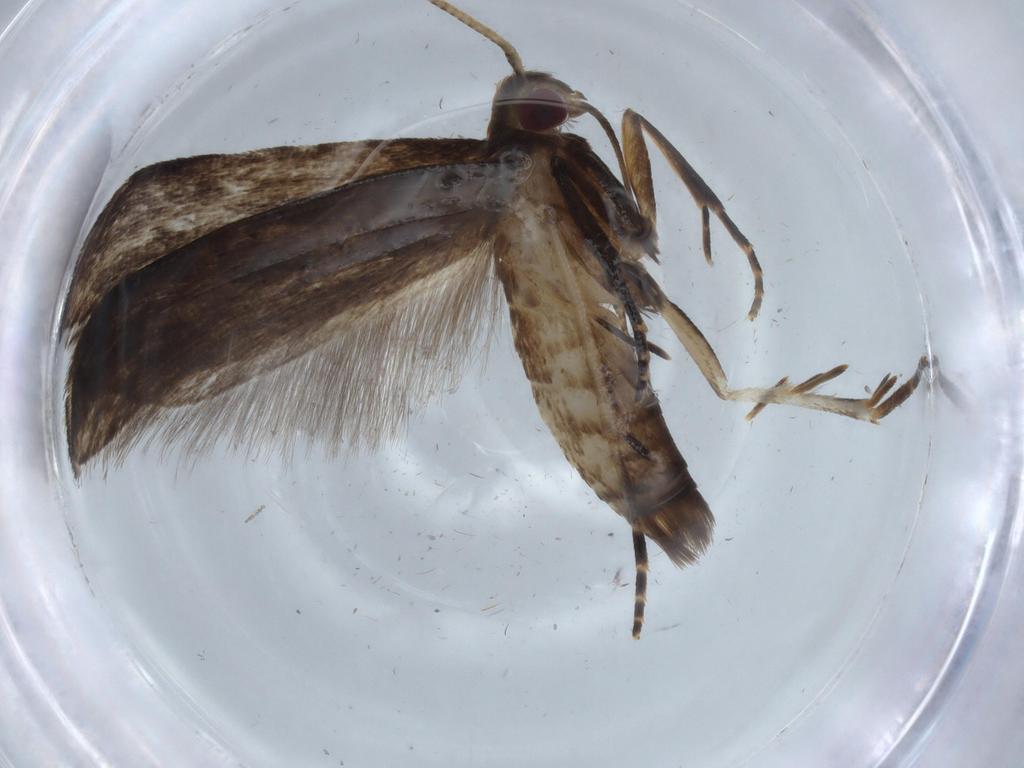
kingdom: Animalia
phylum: Arthropoda
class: Insecta
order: Lepidoptera
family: Gelechiidae
